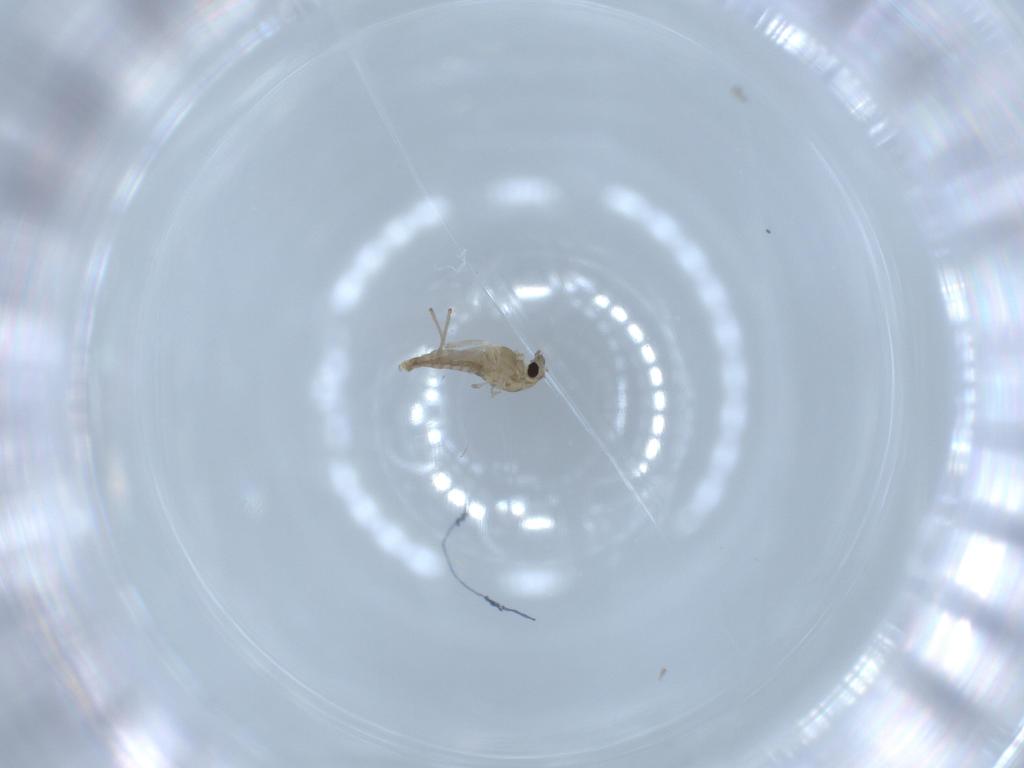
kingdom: Animalia
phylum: Arthropoda
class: Insecta
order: Diptera
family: Chironomidae
